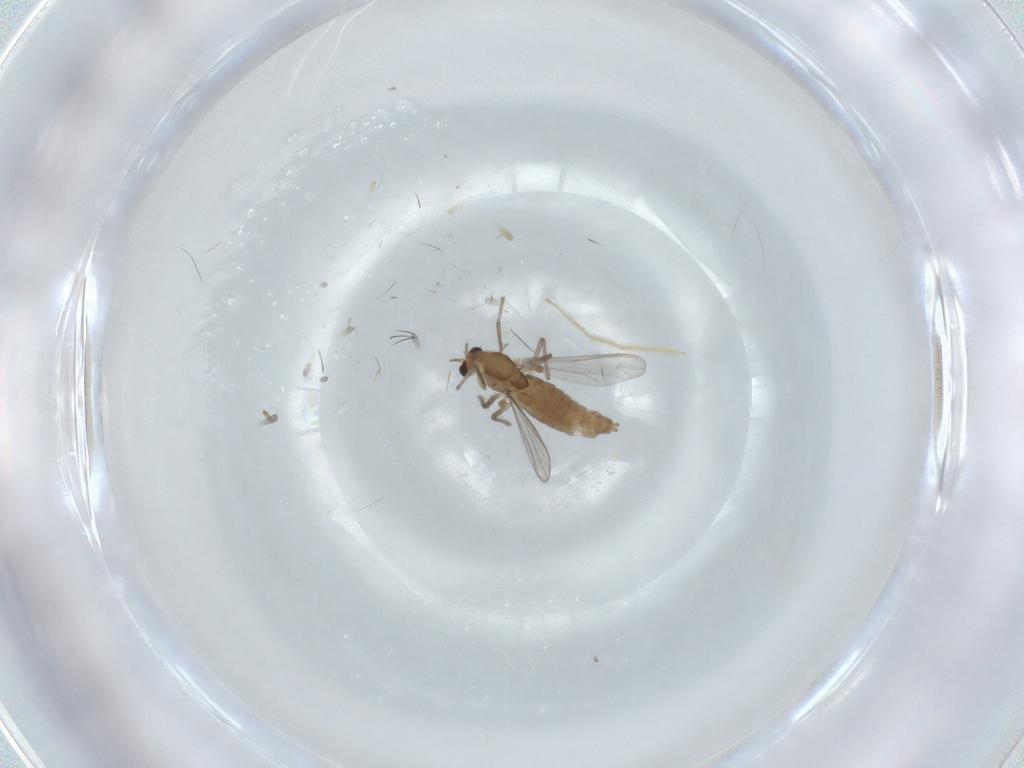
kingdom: Animalia
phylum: Arthropoda
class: Insecta
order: Diptera
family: Chironomidae
